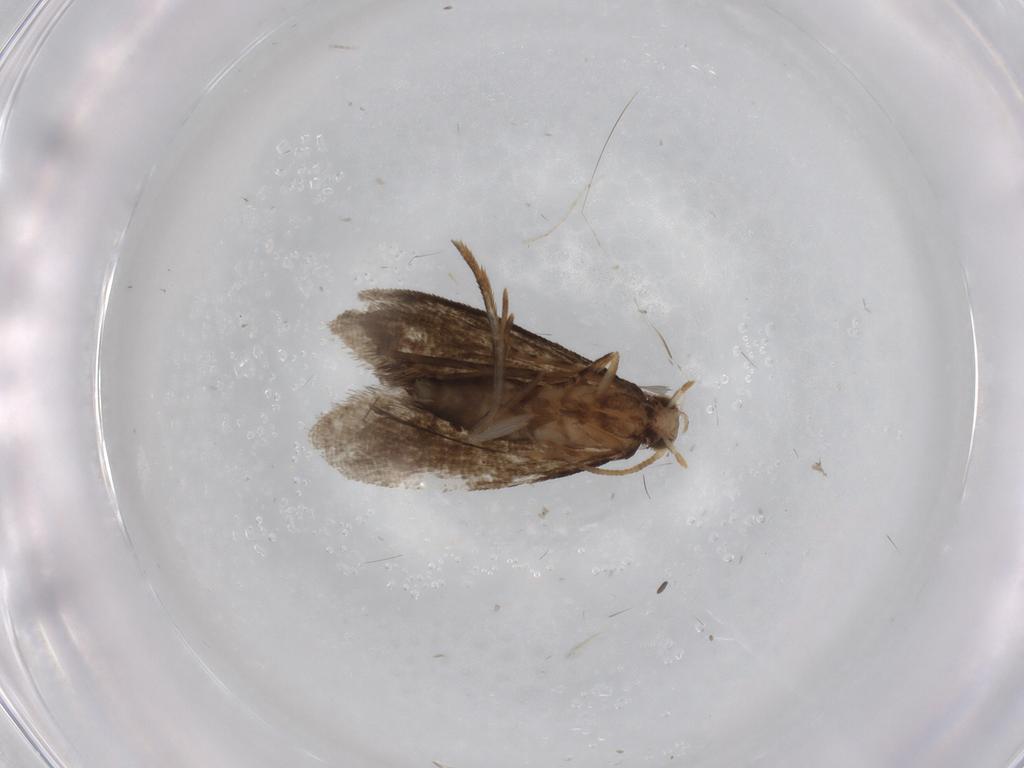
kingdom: Animalia
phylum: Arthropoda
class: Insecta
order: Lepidoptera
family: Tineidae
